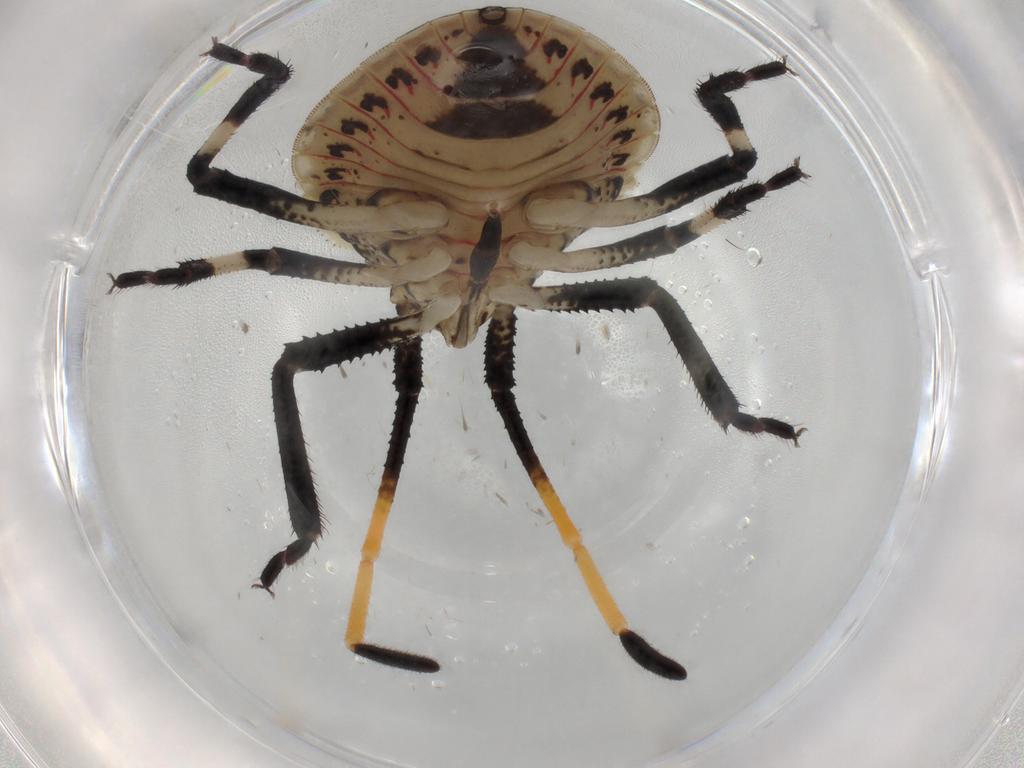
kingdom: Animalia
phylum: Arthropoda
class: Insecta
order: Hemiptera
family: Pentatomidae
